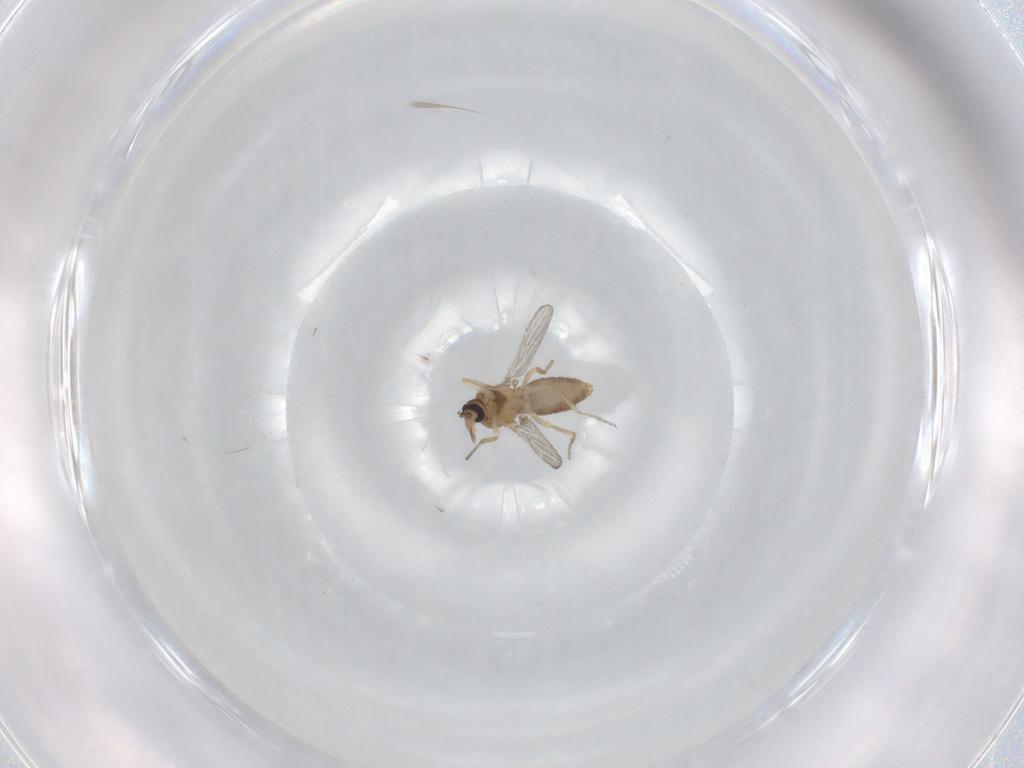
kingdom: Animalia
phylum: Arthropoda
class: Insecta
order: Diptera
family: Ceratopogonidae
